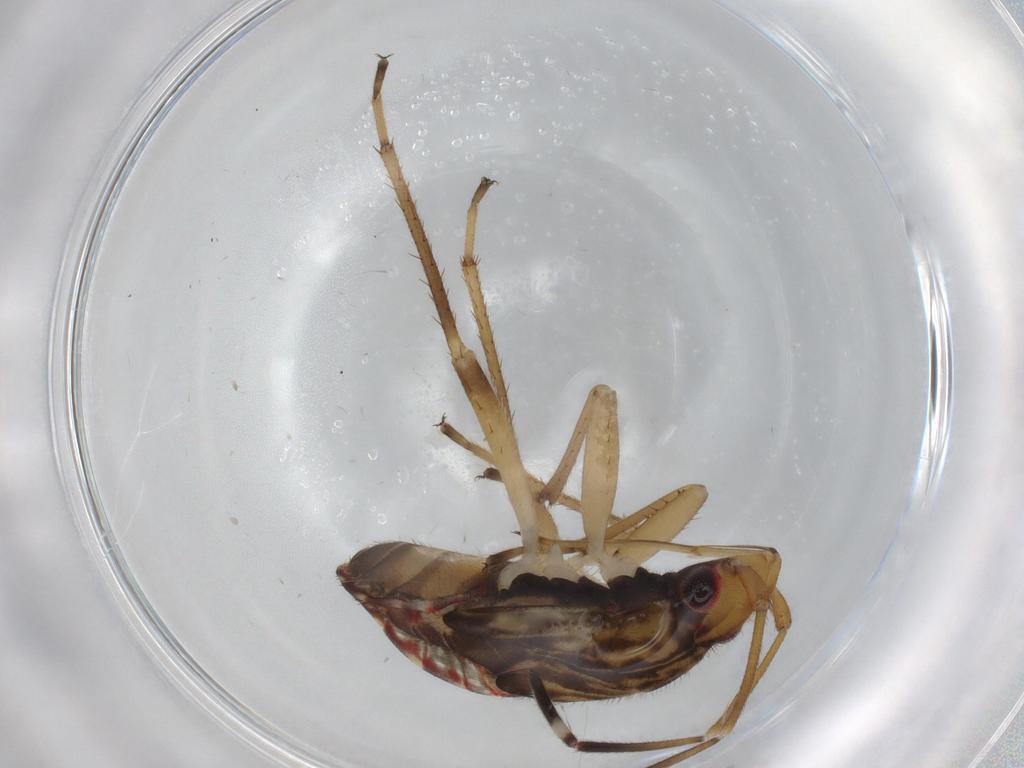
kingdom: Animalia
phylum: Arthropoda
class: Insecta
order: Hemiptera
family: Rhyparochromidae
